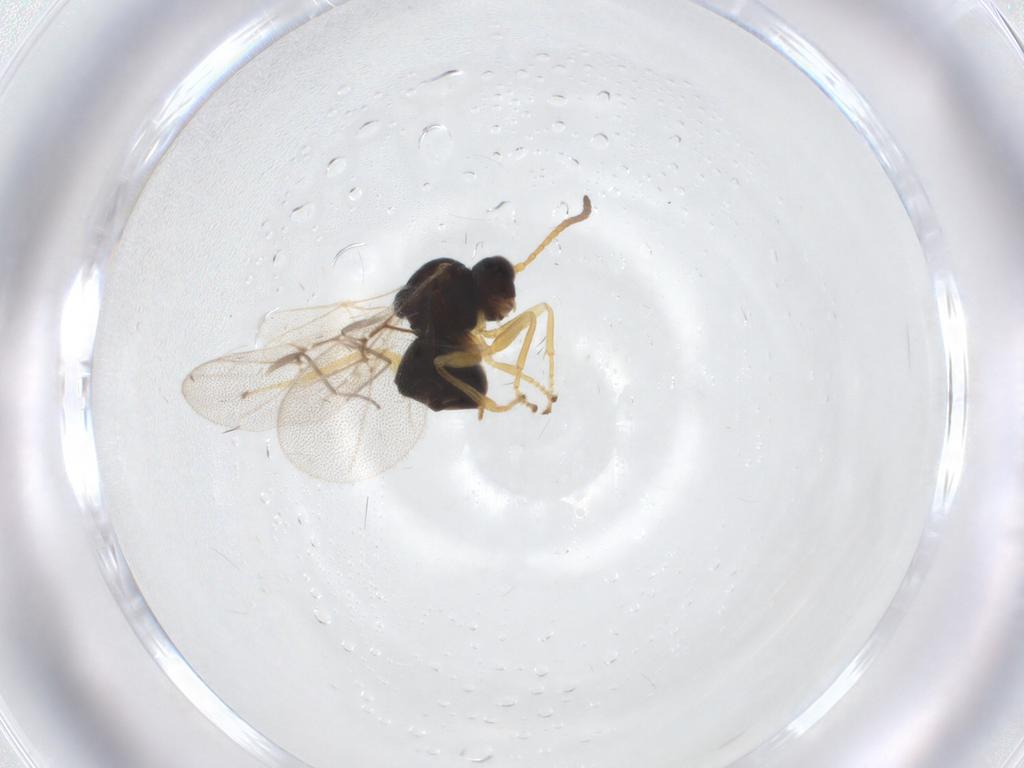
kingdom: Animalia
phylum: Arthropoda
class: Insecta
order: Hymenoptera
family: Cynipidae
